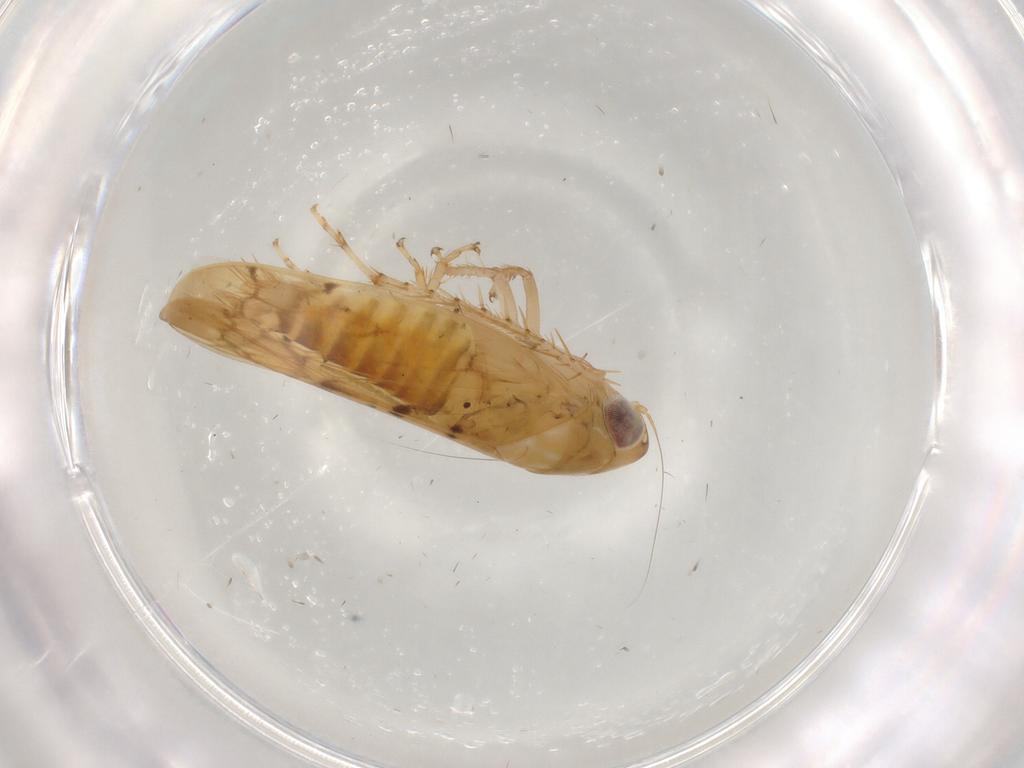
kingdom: Animalia
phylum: Arthropoda
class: Insecta
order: Hemiptera
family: Cicadellidae
